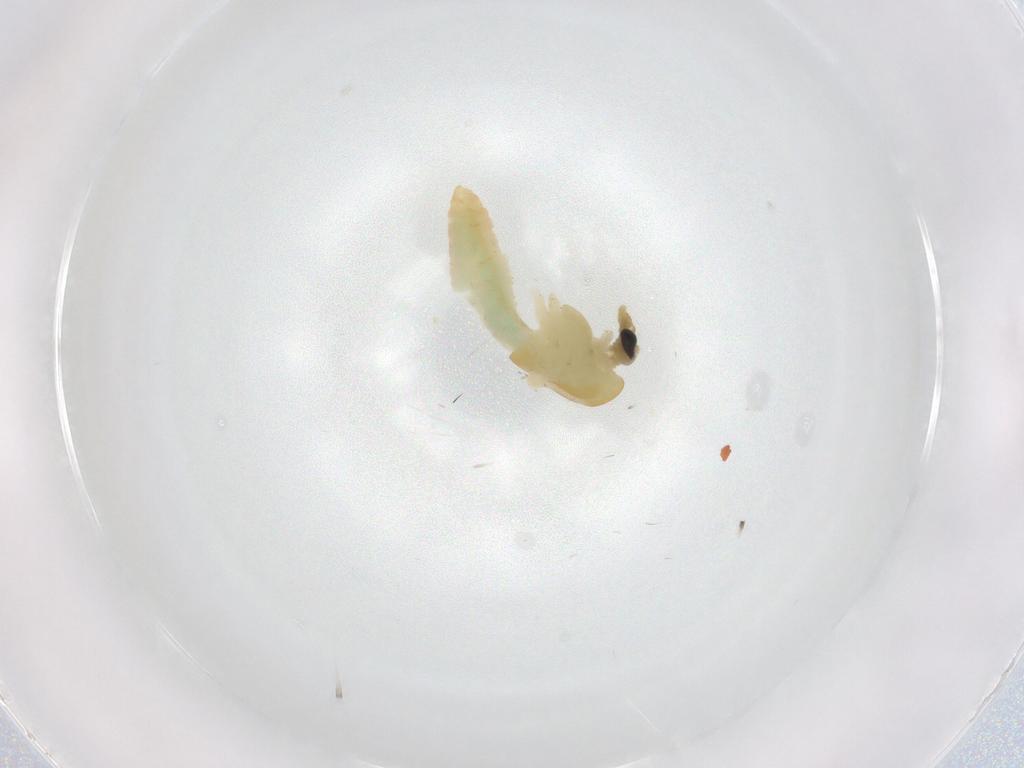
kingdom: Animalia
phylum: Arthropoda
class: Insecta
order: Diptera
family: Chironomidae
